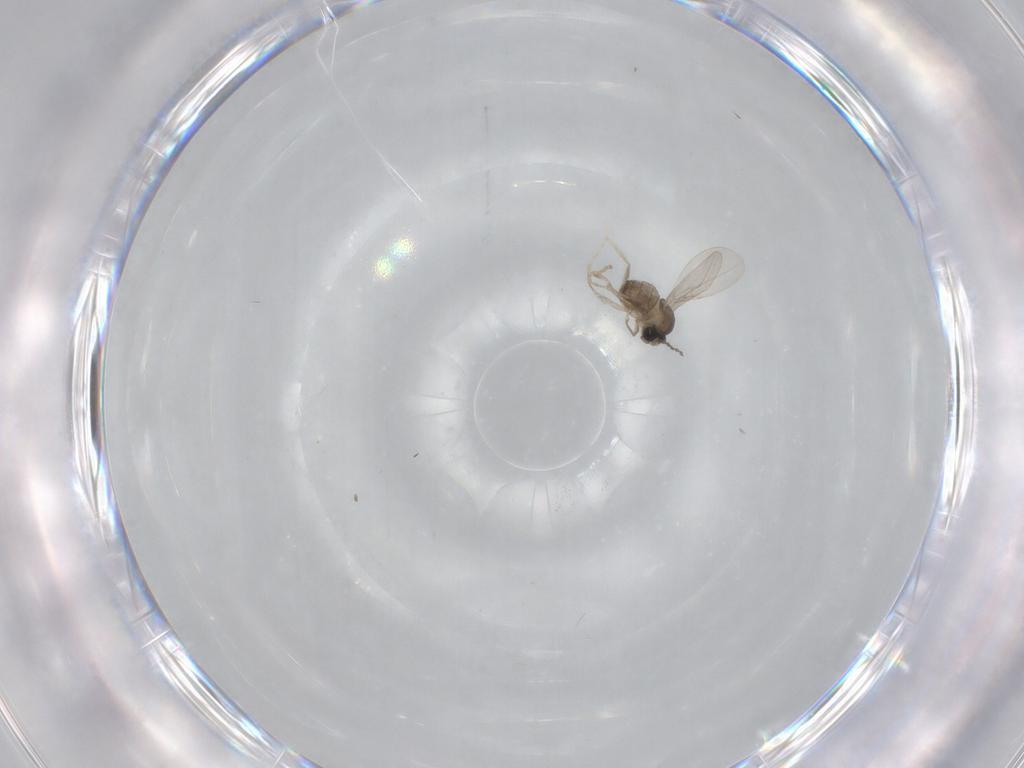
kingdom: Animalia
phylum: Arthropoda
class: Insecta
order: Diptera
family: Cecidomyiidae
